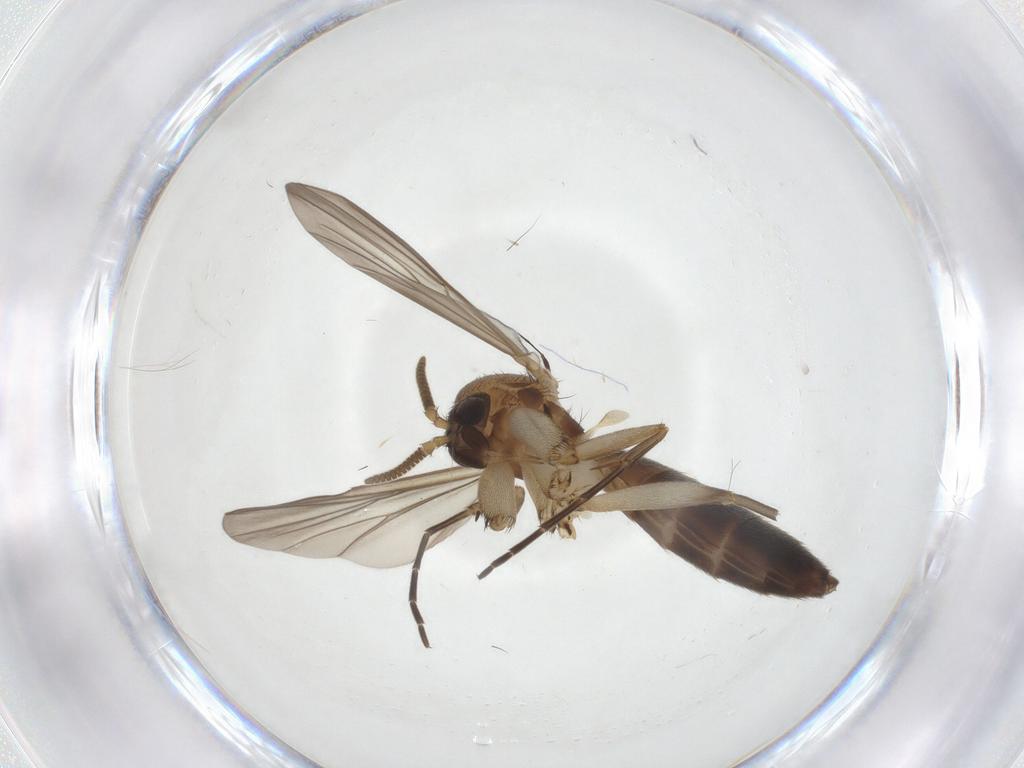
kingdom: Animalia
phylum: Arthropoda
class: Insecta
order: Diptera
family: Mycetophilidae
